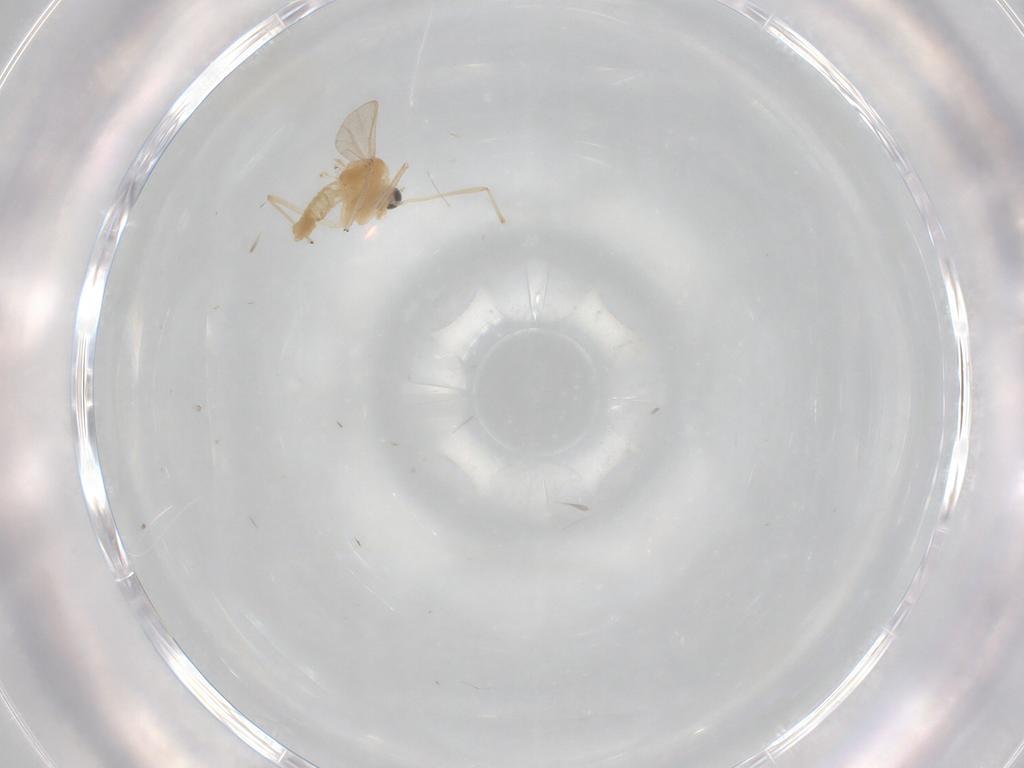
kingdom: Animalia
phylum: Arthropoda
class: Insecta
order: Diptera
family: Chironomidae
